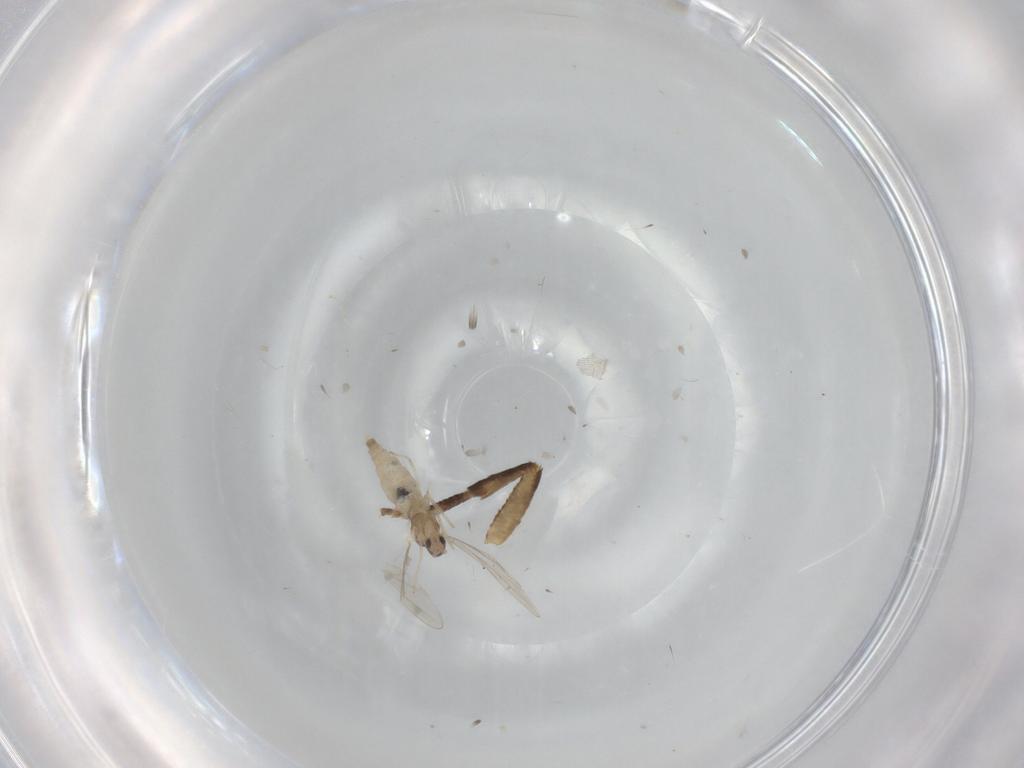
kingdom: Animalia
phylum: Arthropoda
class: Insecta
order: Diptera
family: Cecidomyiidae
